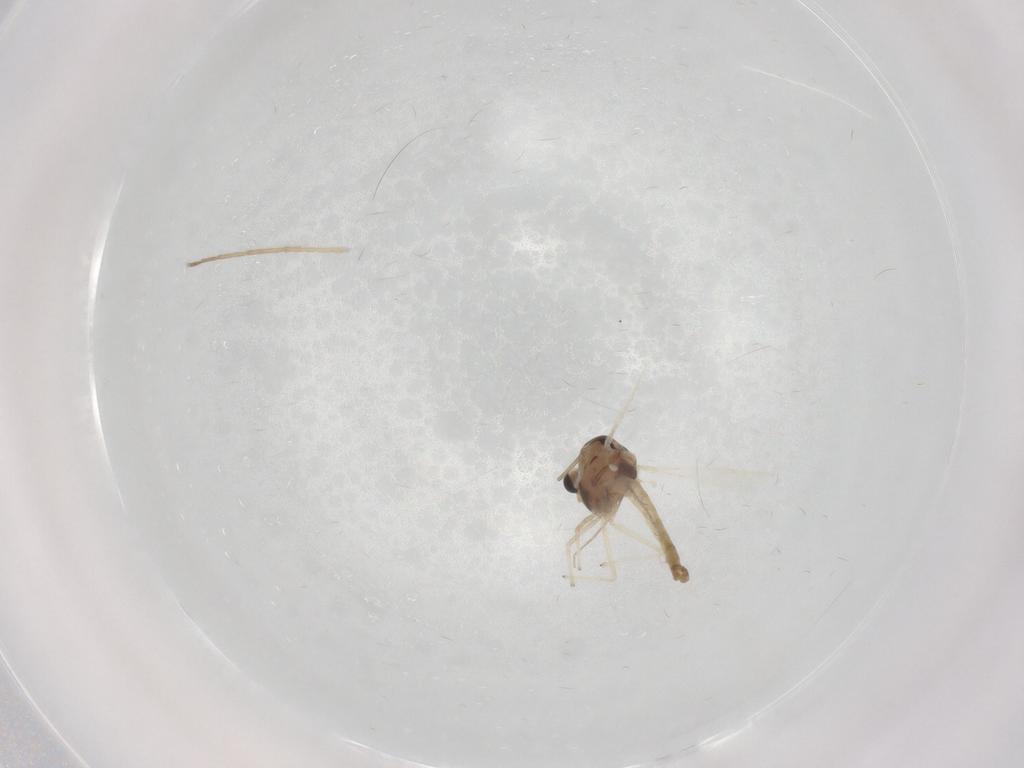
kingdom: Animalia
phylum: Arthropoda
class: Insecta
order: Diptera
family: Chironomidae
